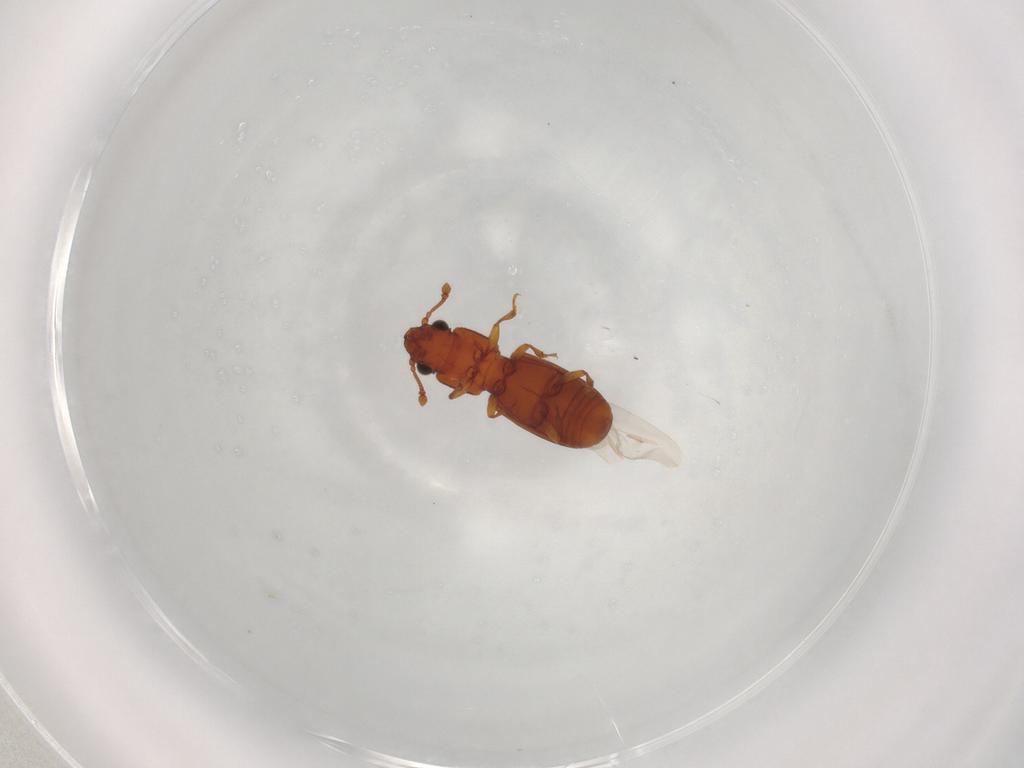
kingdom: Animalia
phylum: Arthropoda
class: Insecta
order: Coleoptera
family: Monotomidae
